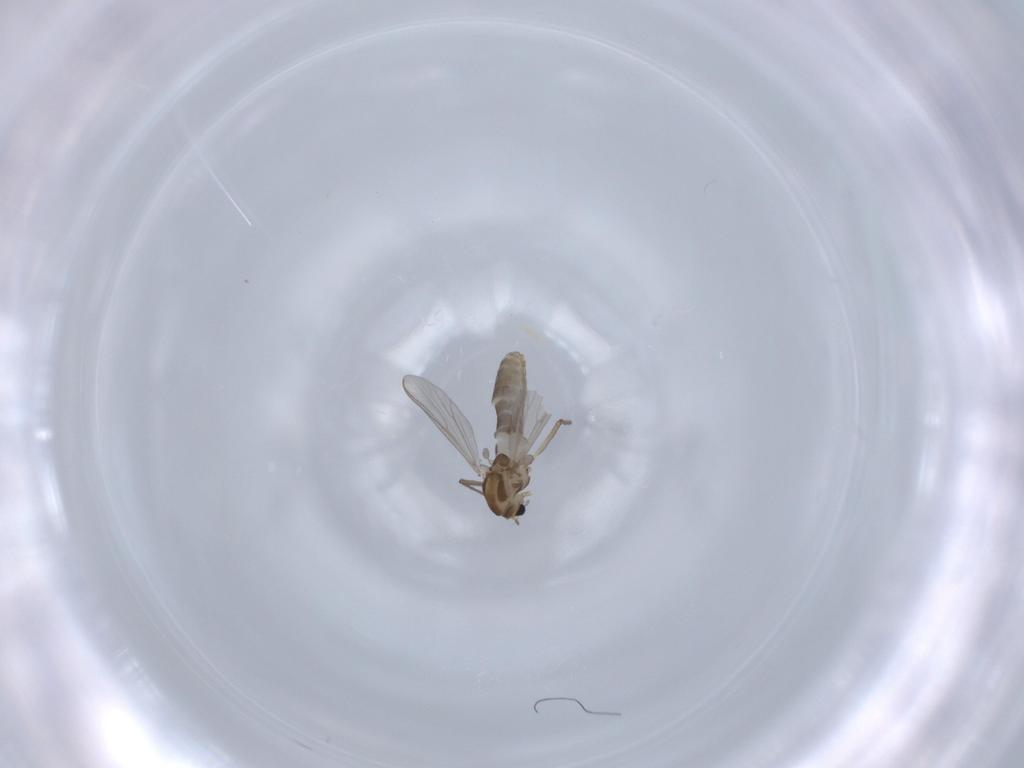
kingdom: Animalia
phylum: Arthropoda
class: Insecta
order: Diptera
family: Chironomidae
